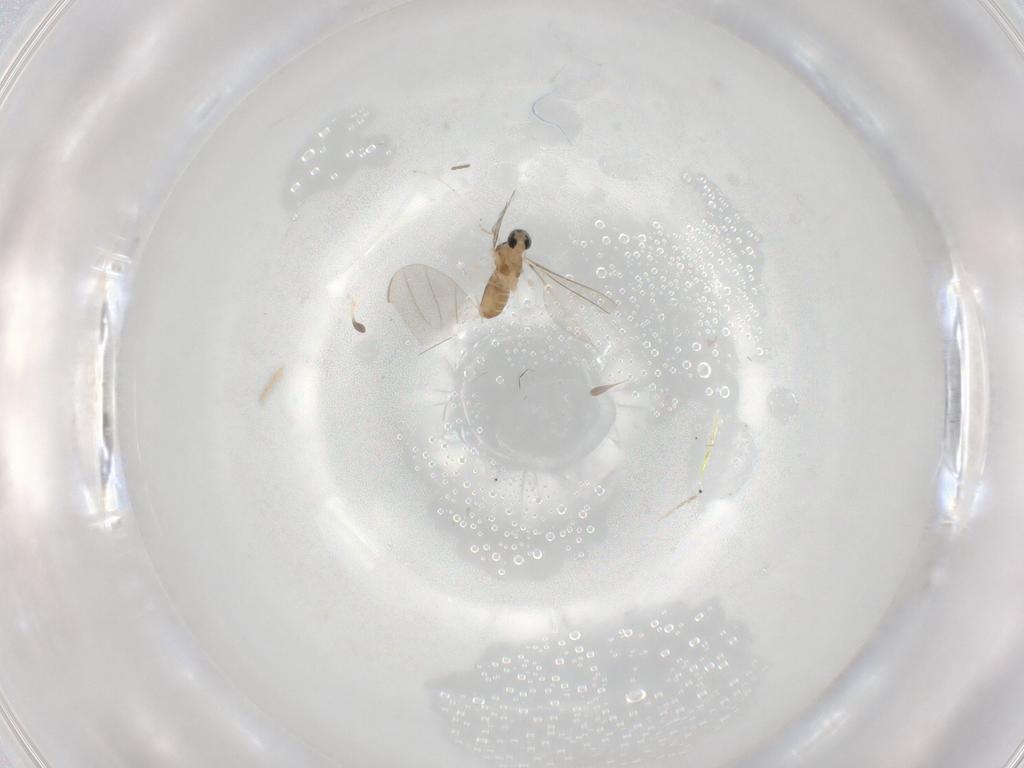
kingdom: Animalia
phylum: Arthropoda
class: Insecta
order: Diptera
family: Cecidomyiidae
